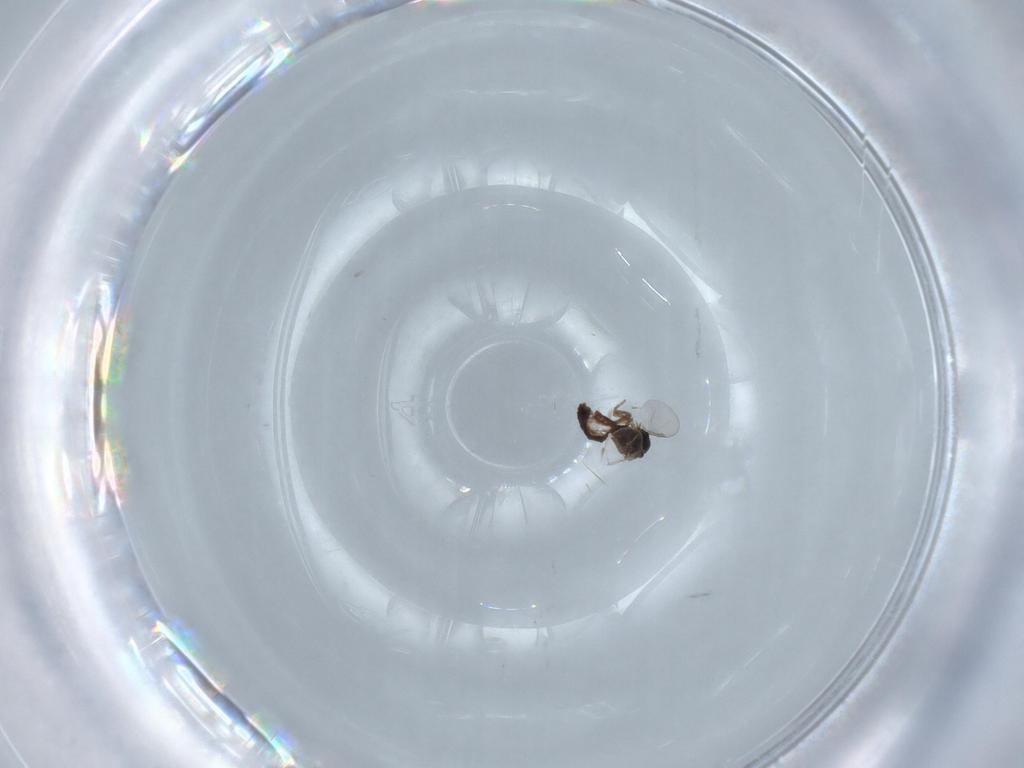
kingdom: Animalia
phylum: Arthropoda
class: Insecta
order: Diptera
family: Ceratopogonidae
